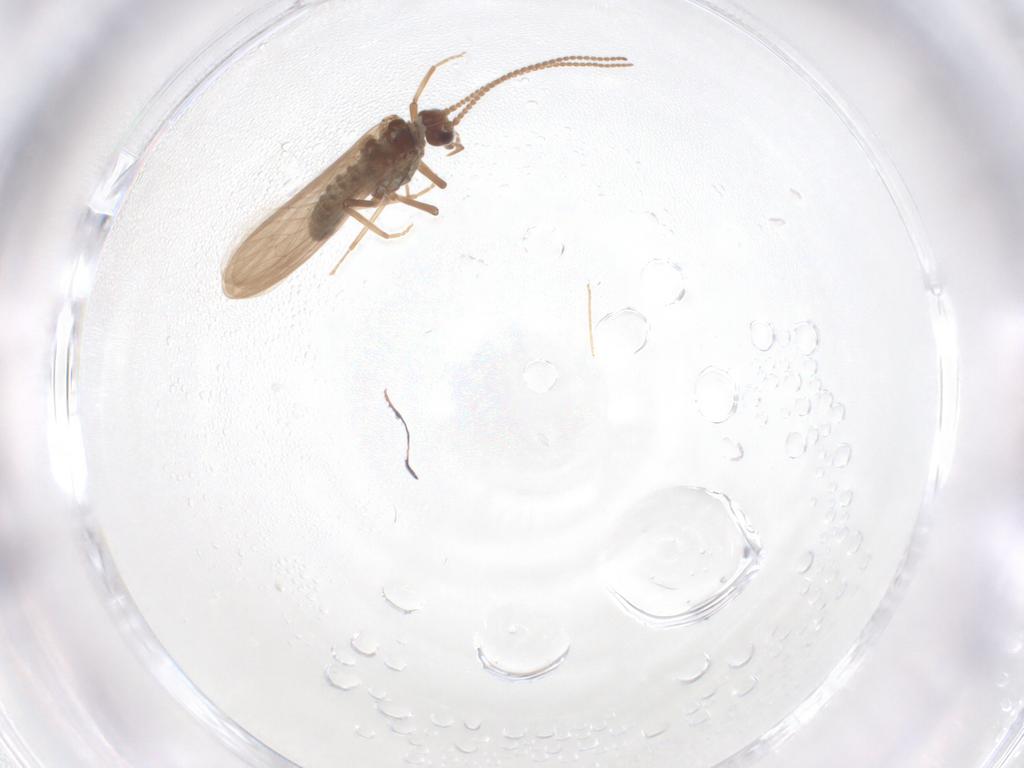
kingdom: Animalia
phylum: Arthropoda
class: Insecta
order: Neuroptera
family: Coniopterygidae
